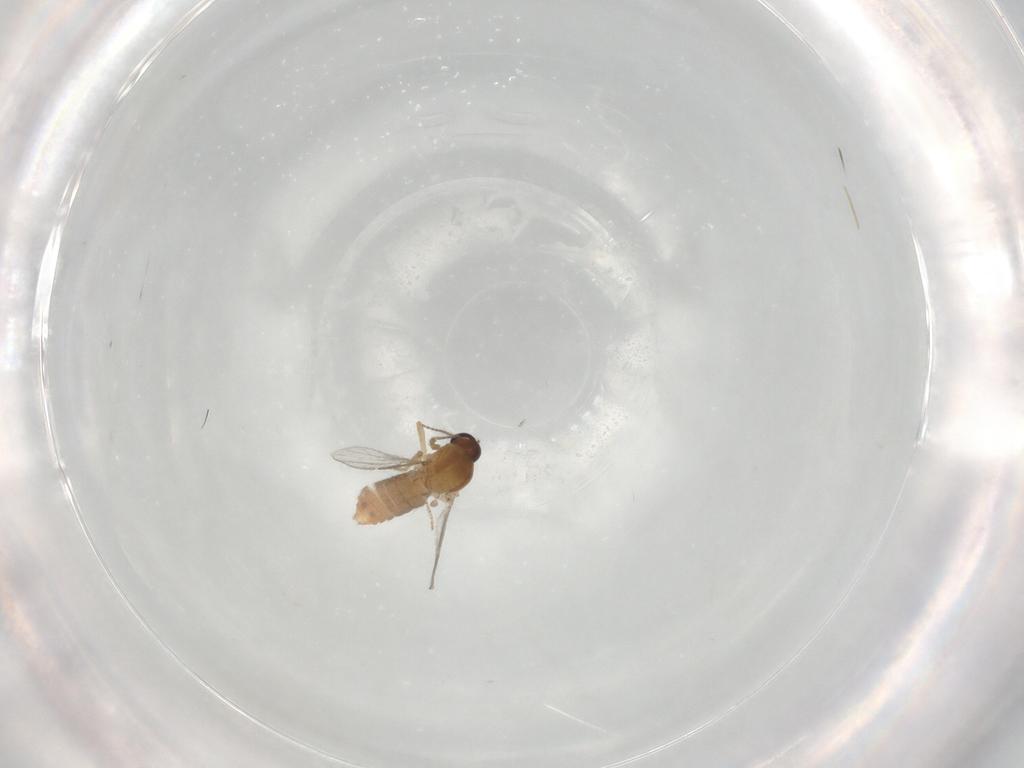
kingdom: Animalia
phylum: Arthropoda
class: Insecta
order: Diptera
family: Ceratopogonidae
